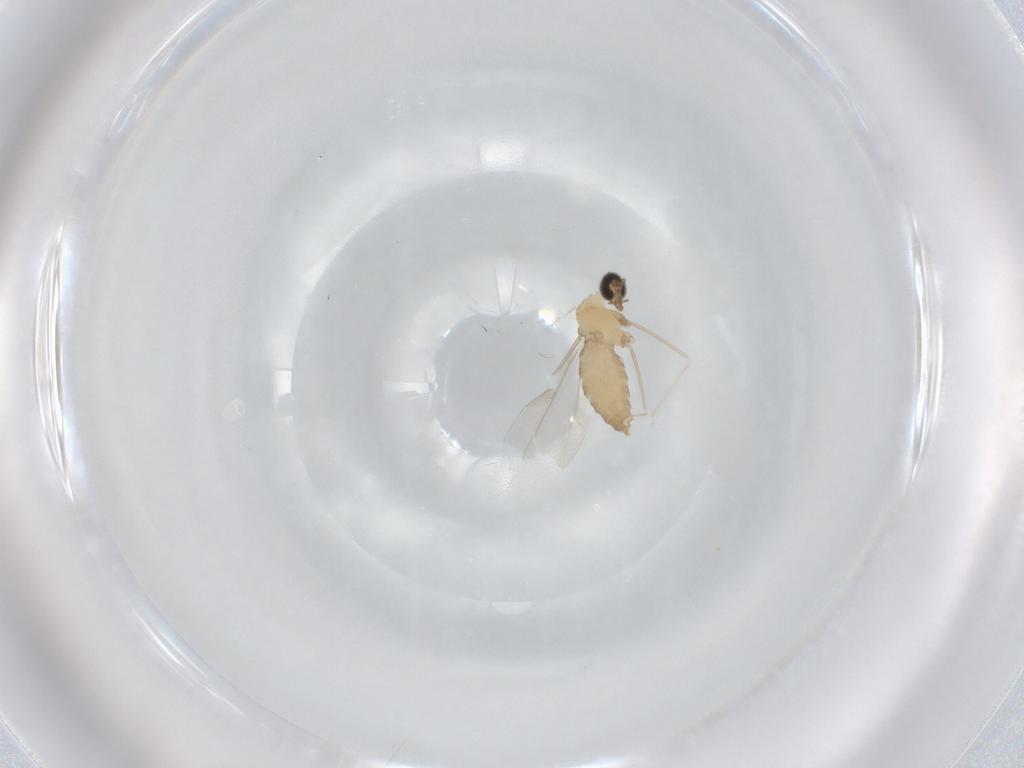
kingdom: Animalia
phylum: Arthropoda
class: Insecta
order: Diptera
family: Cecidomyiidae
